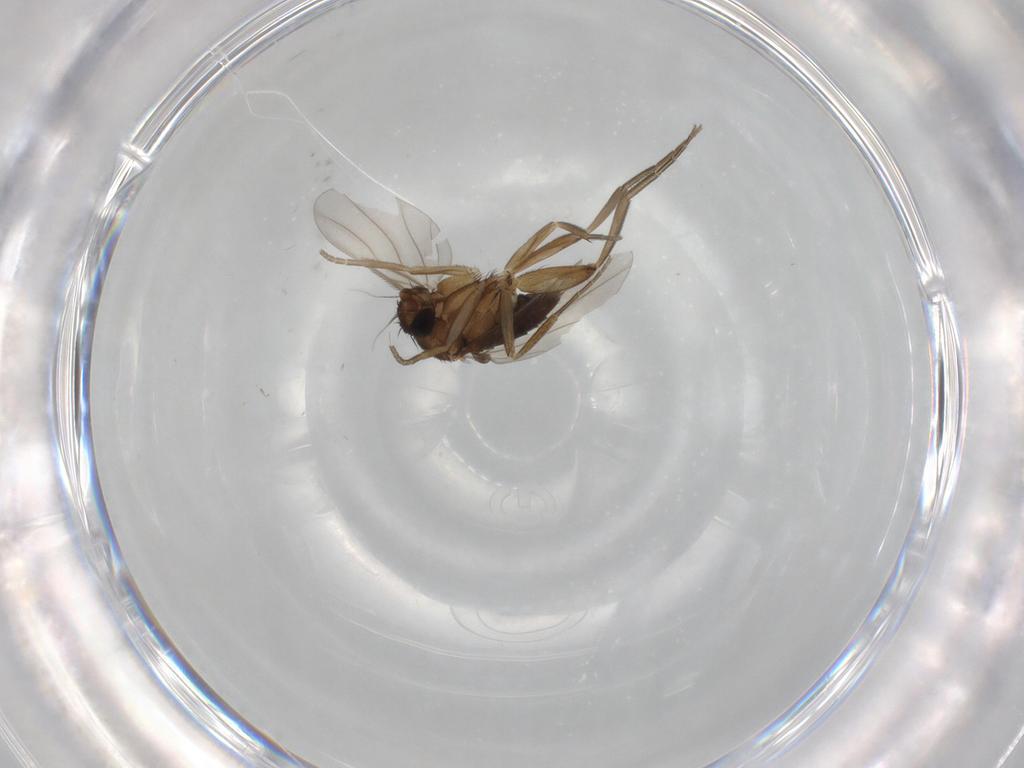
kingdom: Animalia
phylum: Arthropoda
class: Insecta
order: Diptera
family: Phoridae
